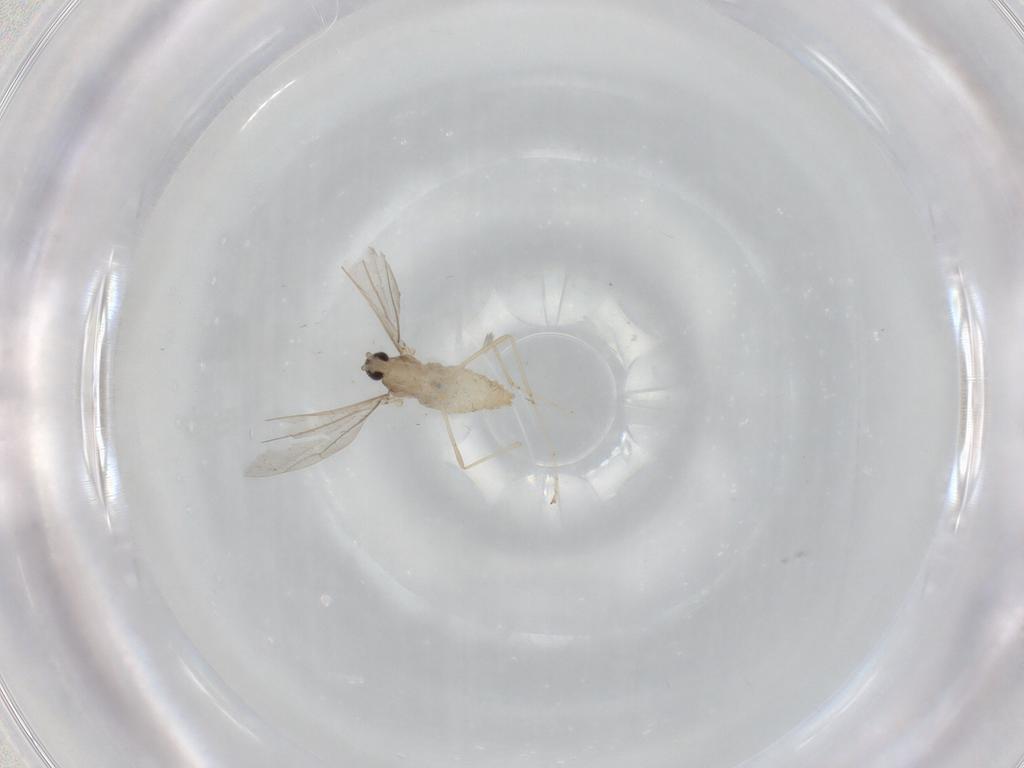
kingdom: Animalia
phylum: Arthropoda
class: Insecta
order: Diptera
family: Cecidomyiidae
